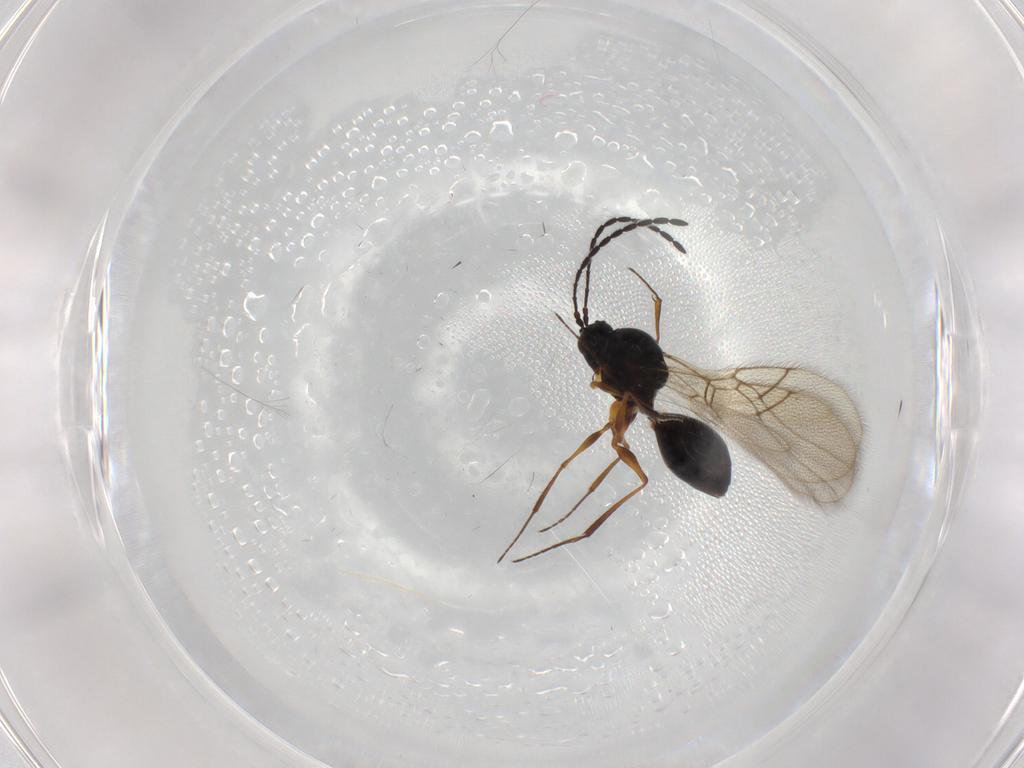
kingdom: Animalia
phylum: Arthropoda
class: Insecta
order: Hymenoptera
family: Figitidae
